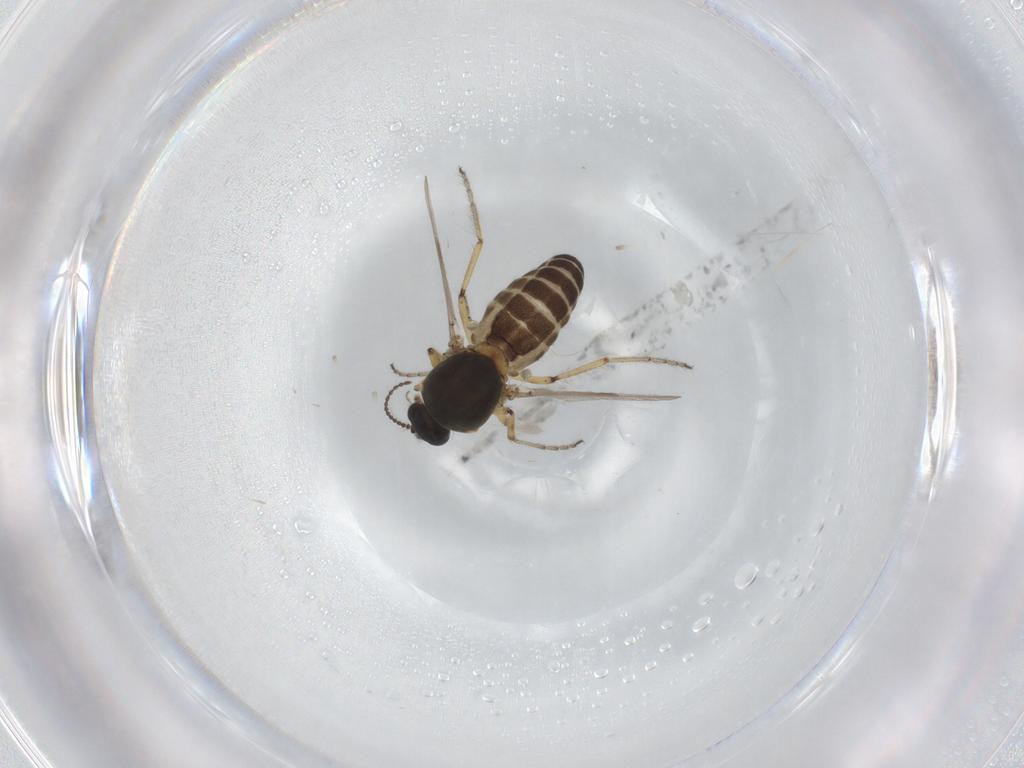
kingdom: Animalia
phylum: Arthropoda
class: Insecta
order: Diptera
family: Ceratopogonidae
